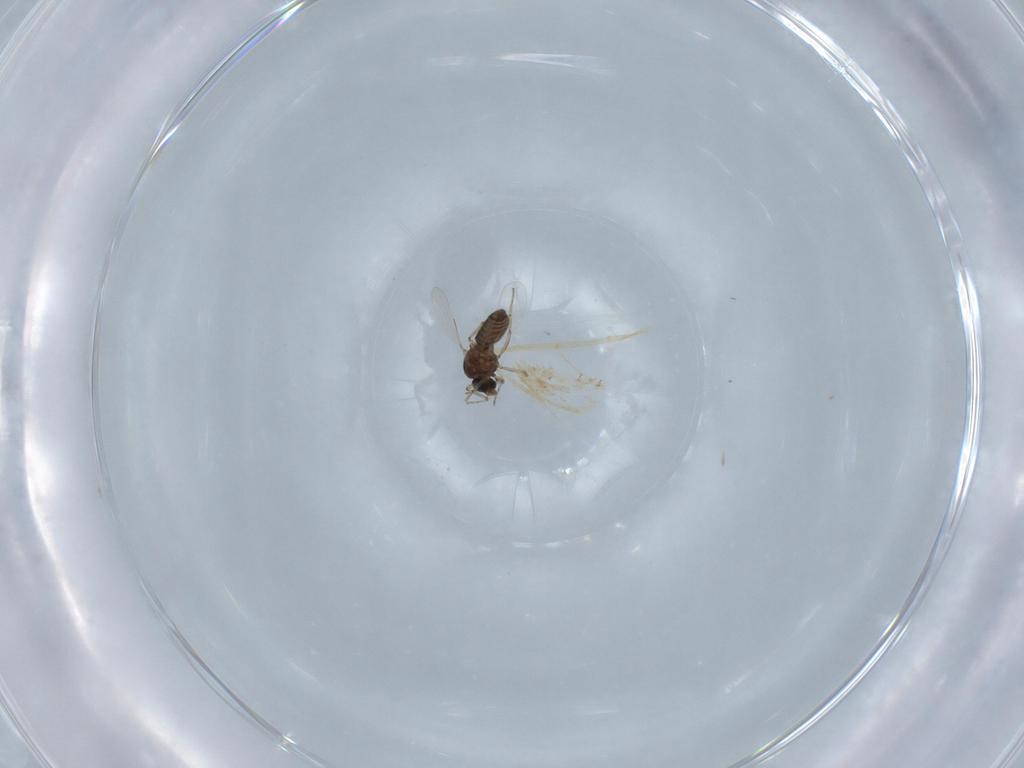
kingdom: Animalia
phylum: Arthropoda
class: Insecta
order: Diptera
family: Ceratopogonidae
